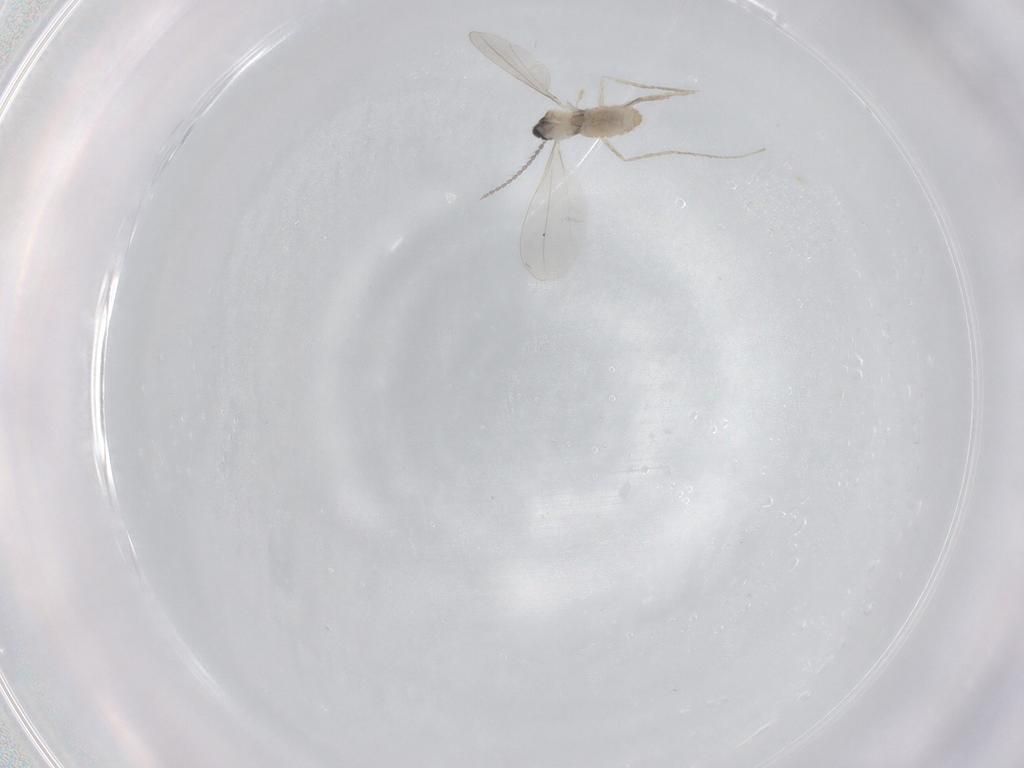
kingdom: Animalia
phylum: Arthropoda
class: Insecta
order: Diptera
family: Cecidomyiidae
